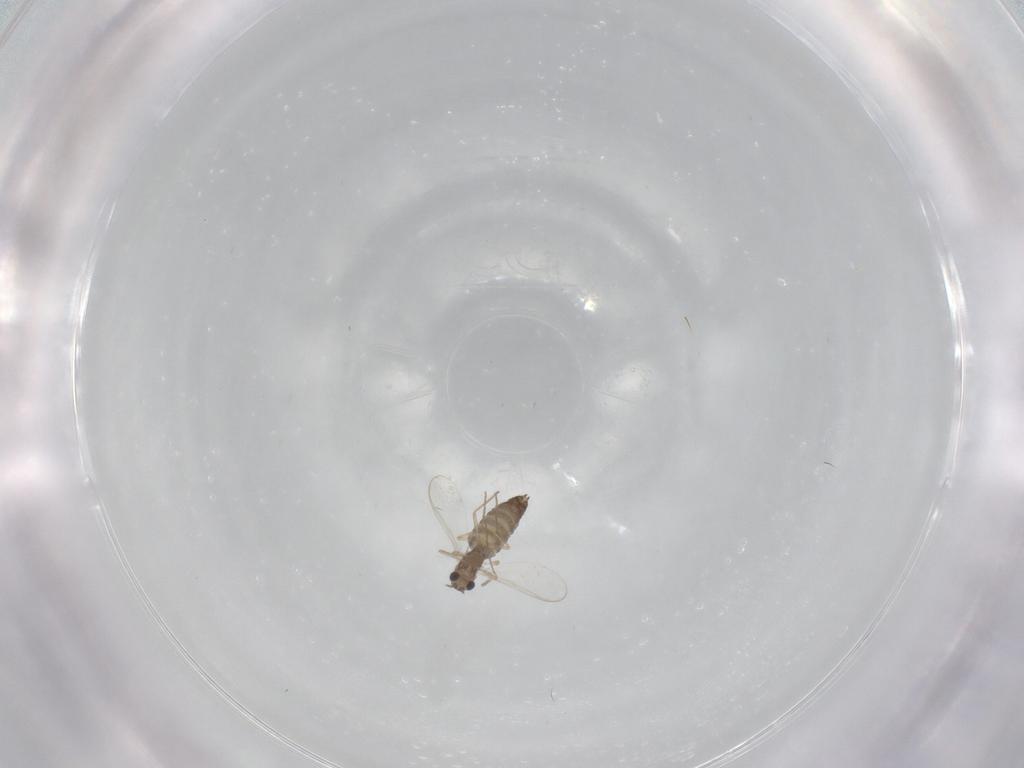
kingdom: Animalia
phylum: Arthropoda
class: Insecta
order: Diptera
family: Chironomidae
